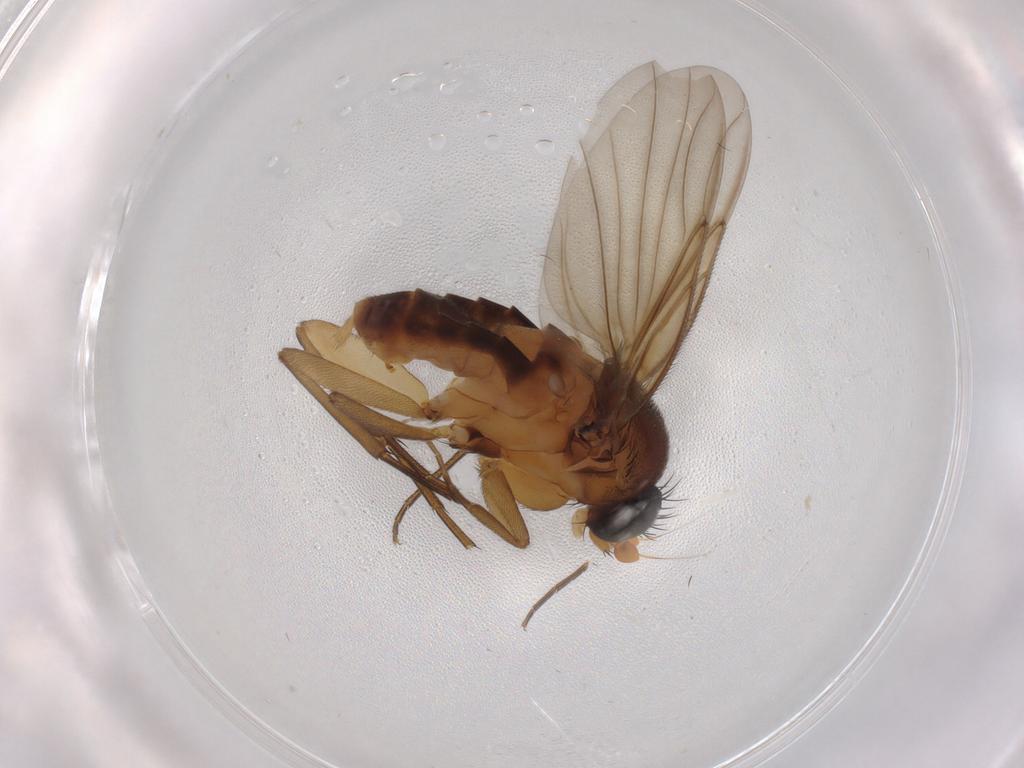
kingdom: Animalia
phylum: Arthropoda
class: Insecta
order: Diptera
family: Phoridae
